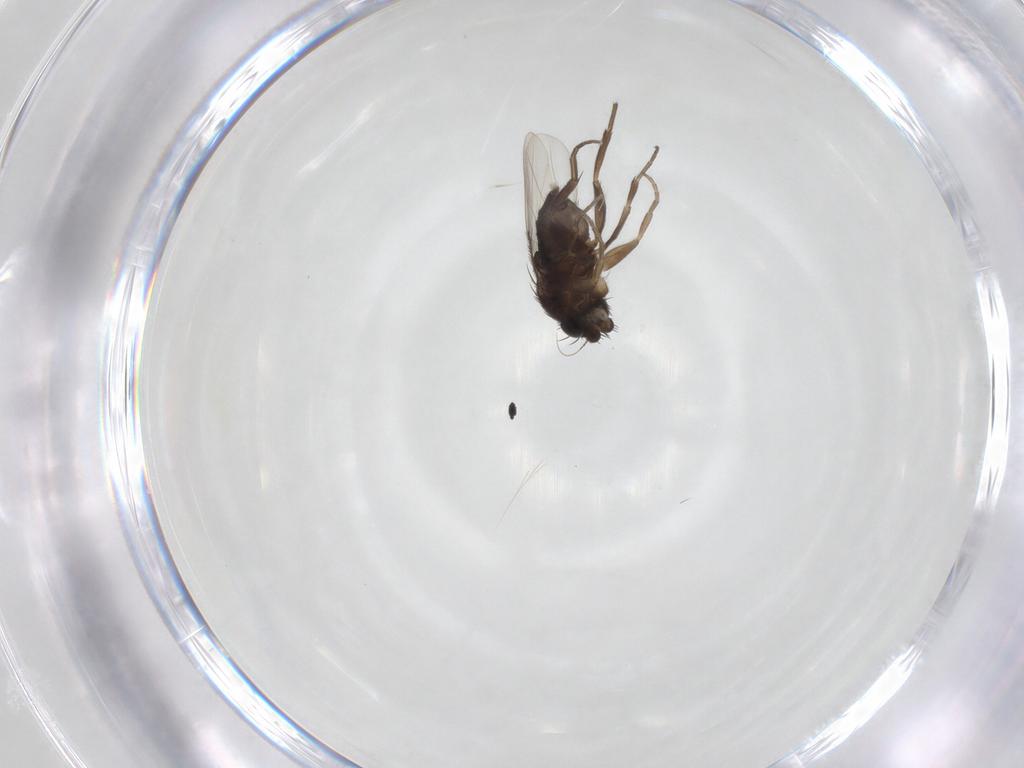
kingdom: Animalia
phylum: Arthropoda
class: Insecta
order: Diptera
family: Phoridae
